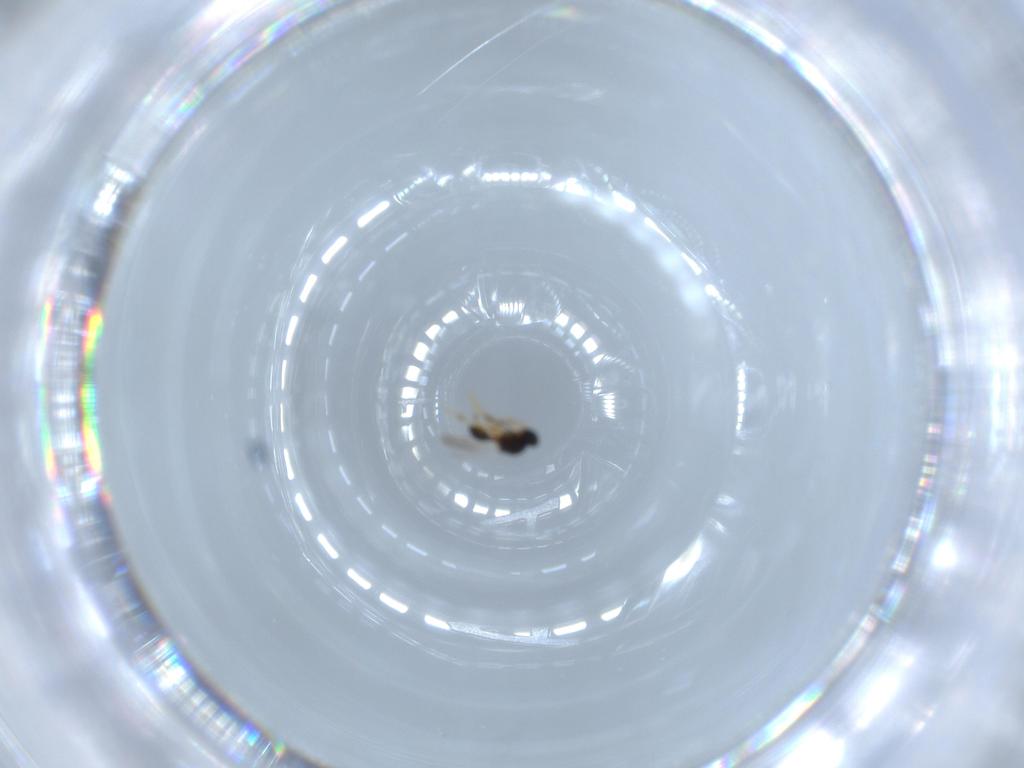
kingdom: Animalia
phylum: Arthropoda
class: Insecta
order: Hymenoptera
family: Platygastridae
